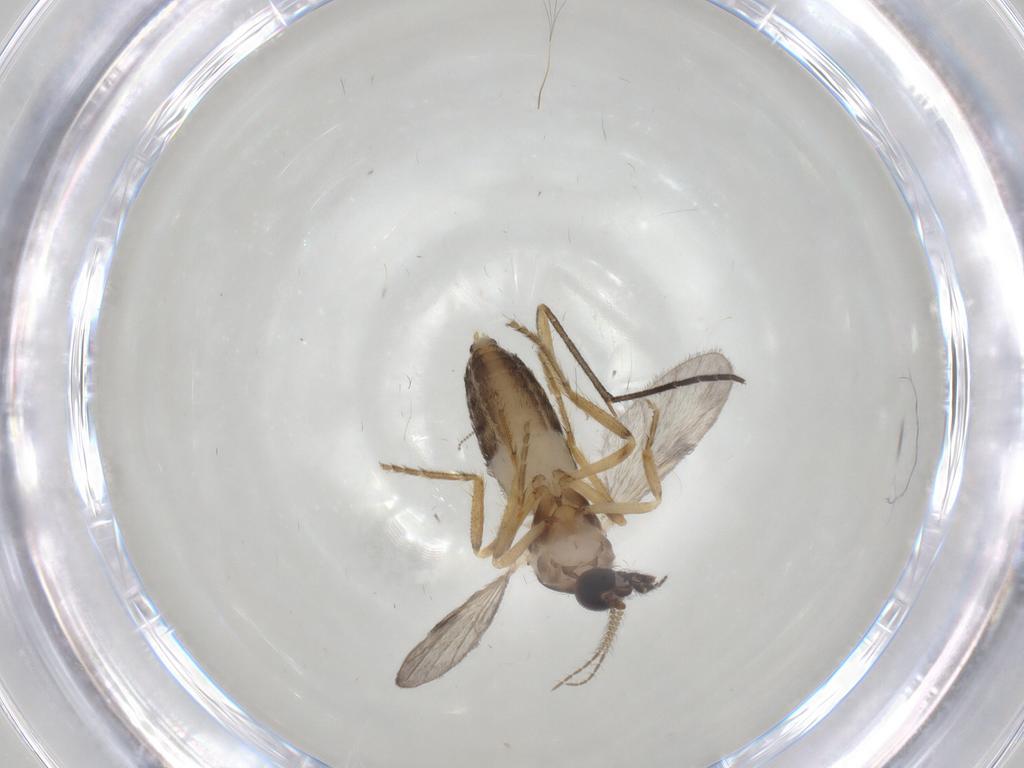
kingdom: Animalia
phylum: Arthropoda
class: Insecta
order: Diptera
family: Ceratopogonidae
